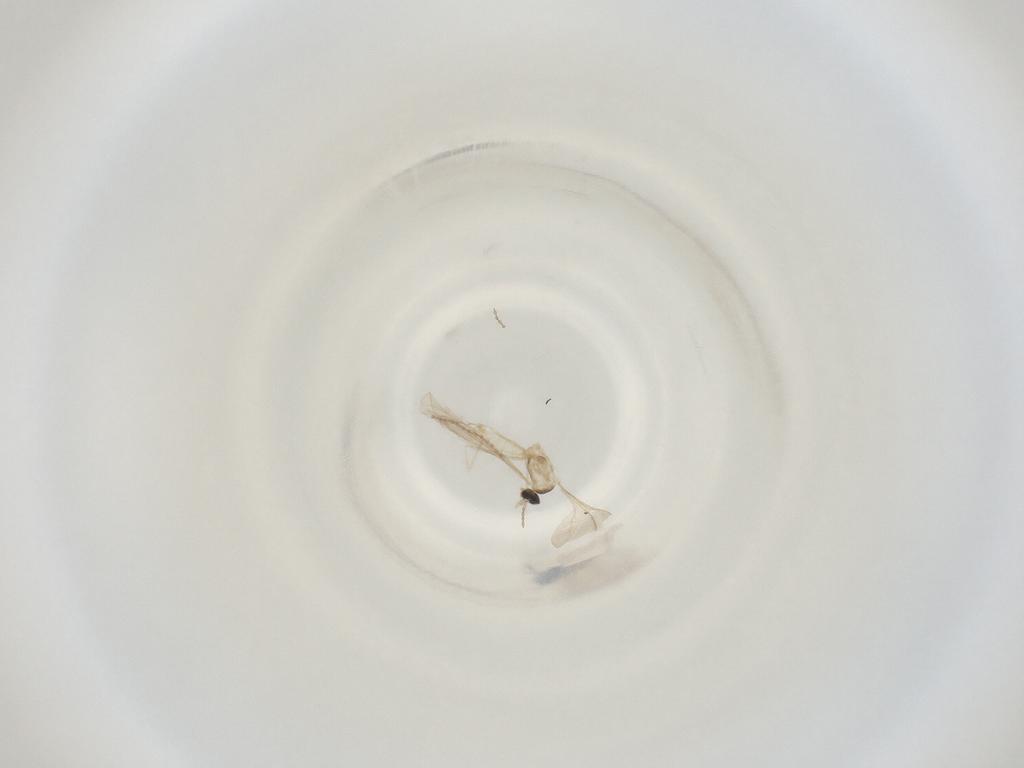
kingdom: Animalia
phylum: Arthropoda
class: Insecta
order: Diptera
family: Cecidomyiidae
